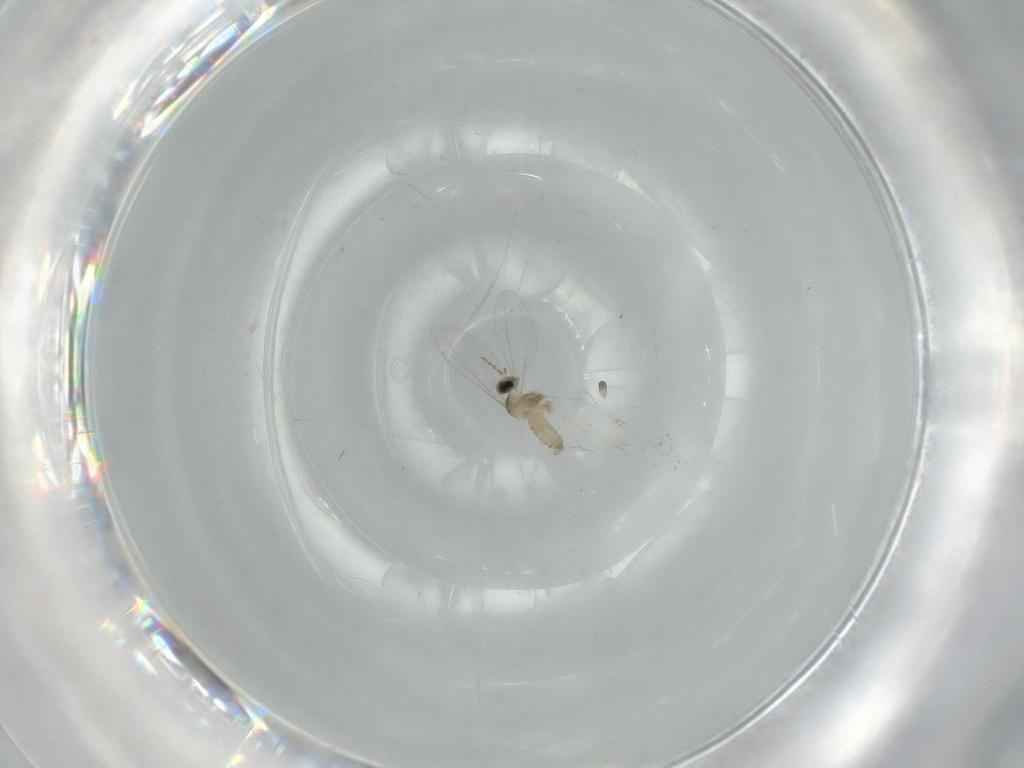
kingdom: Animalia
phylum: Arthropoda
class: Insecta
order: Diptera
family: Cecidomyiidae
